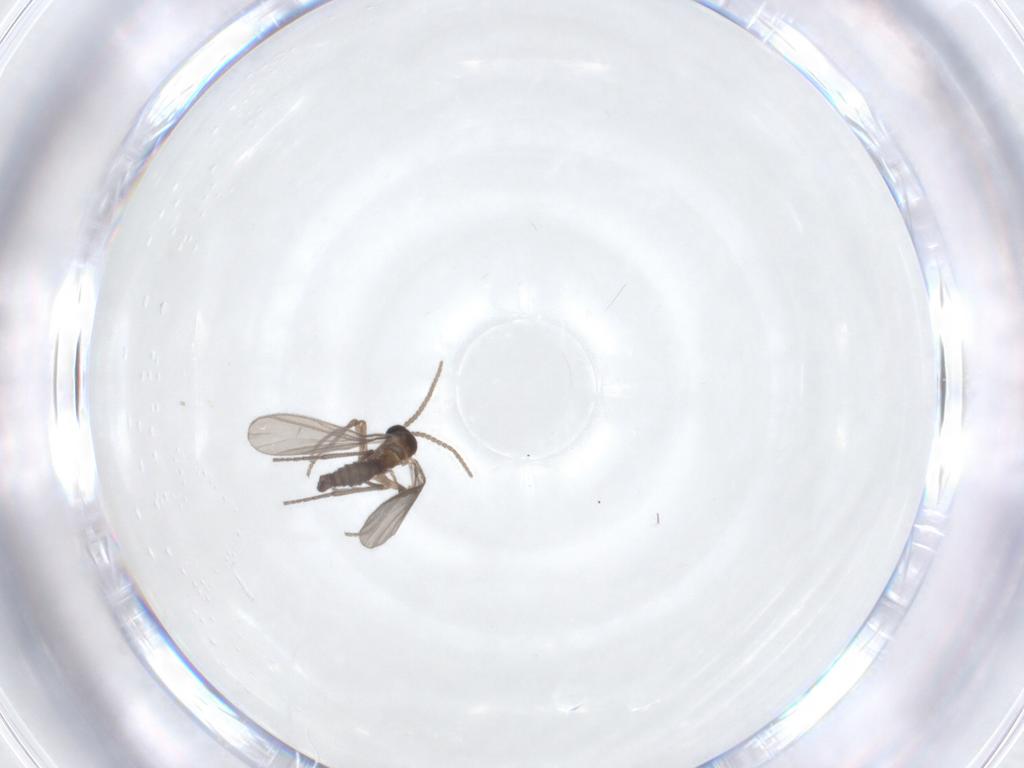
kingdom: Animalia
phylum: Arthropoda
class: Insecta
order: Diptera
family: Sciaridae
